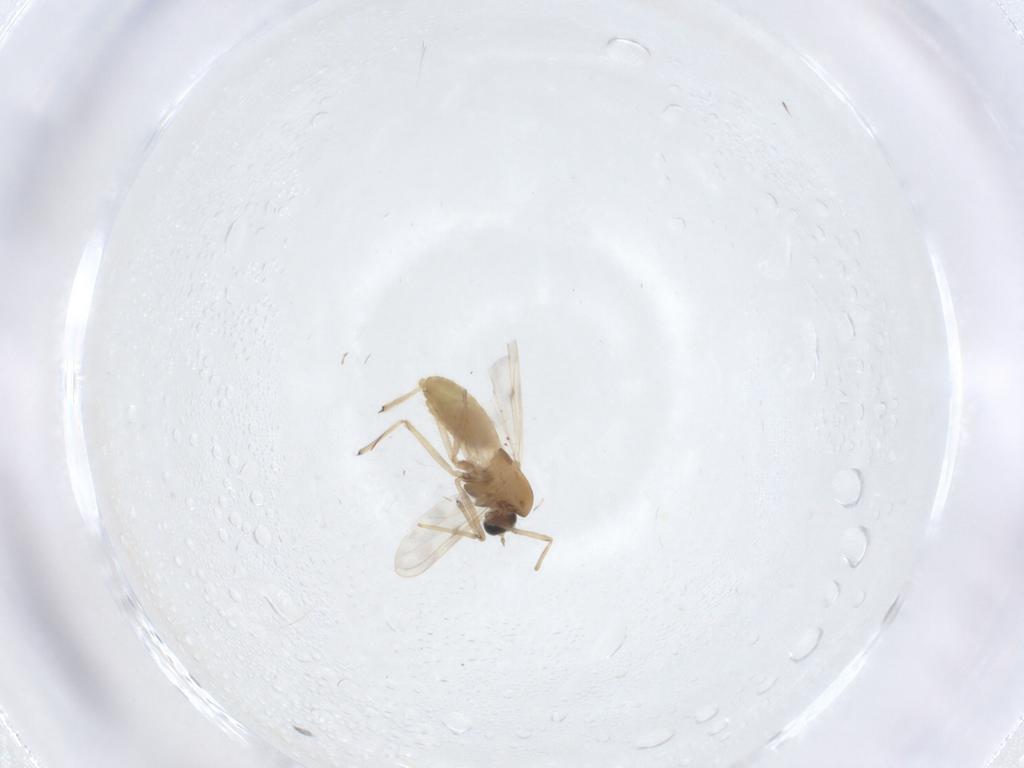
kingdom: Animalia
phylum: Arthropoda
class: Insecta
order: Diptera
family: Chironomidae
